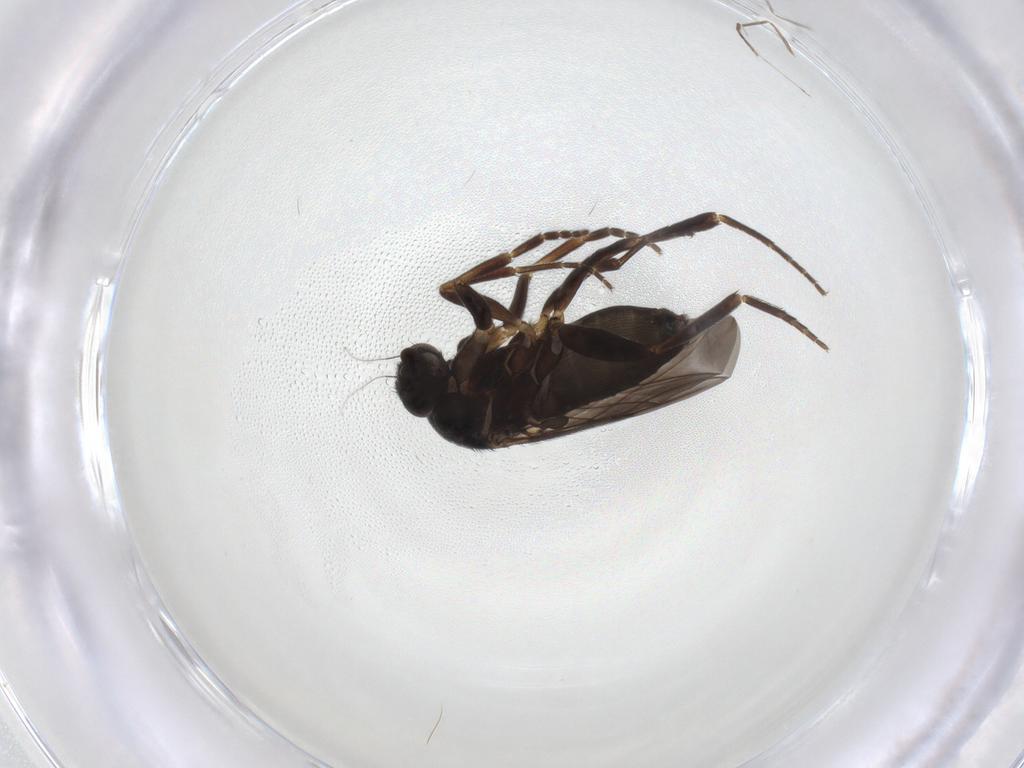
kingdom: Animalia
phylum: Arthropoda
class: Insecta
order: Diptera
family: Phoridae
